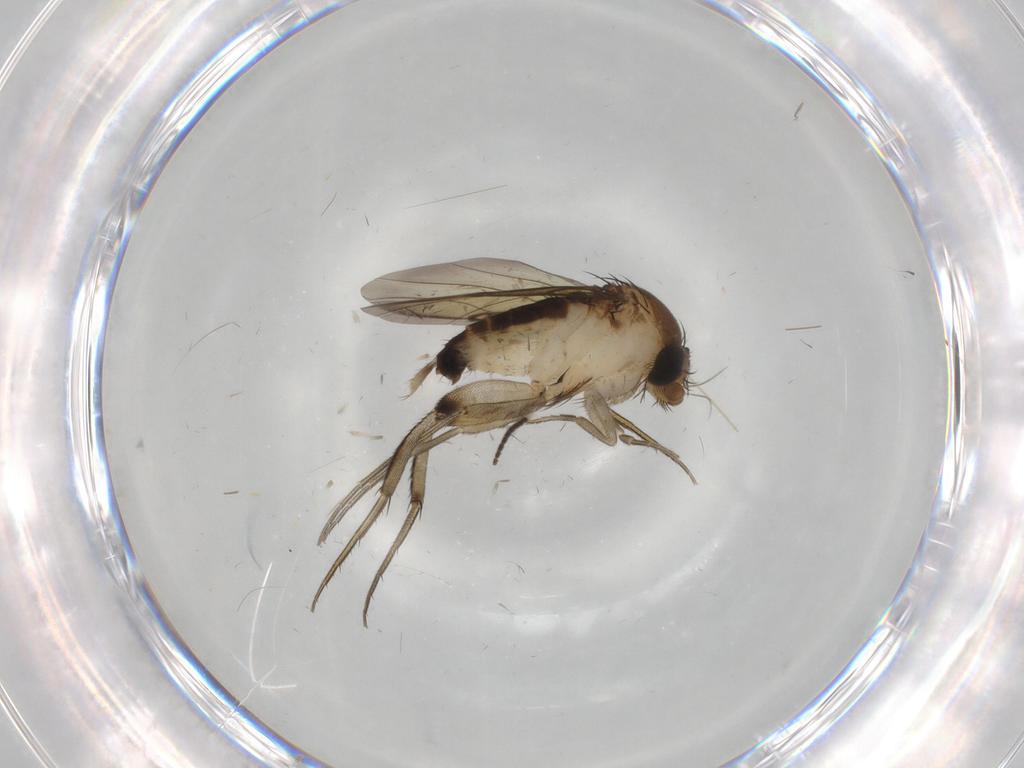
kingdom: Animalia
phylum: Arthropoda
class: Insecta
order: Diptera
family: Phoridae
